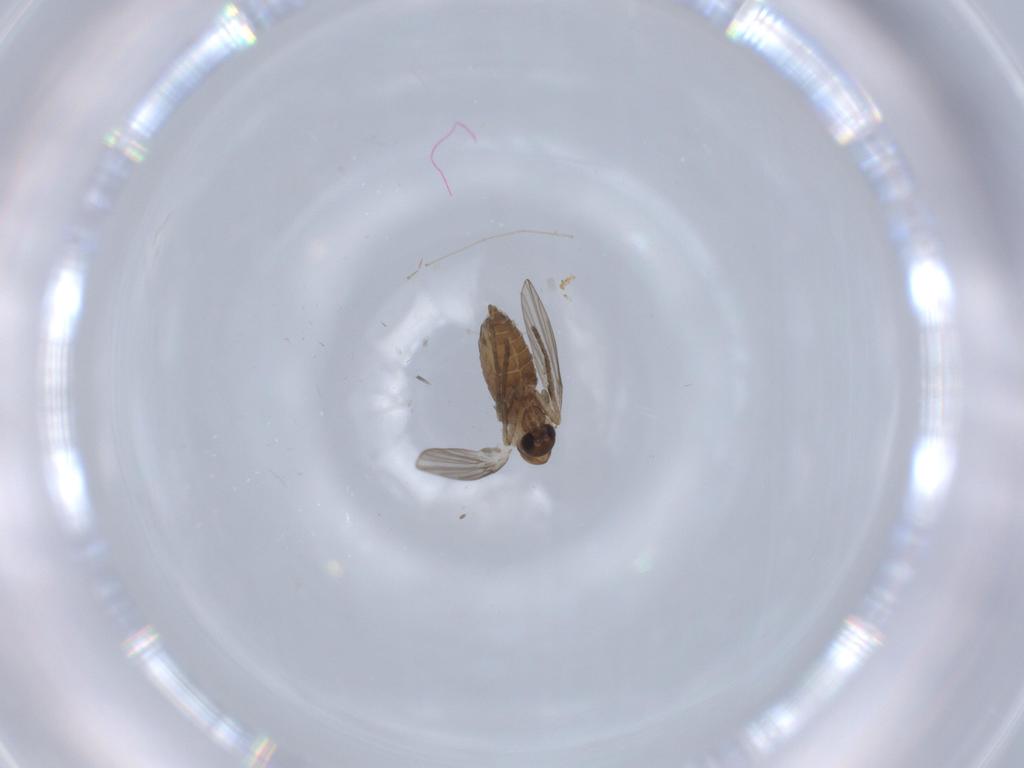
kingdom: Animalia
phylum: Arthropoda
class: Insecta
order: Diptera
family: Psychodidae
